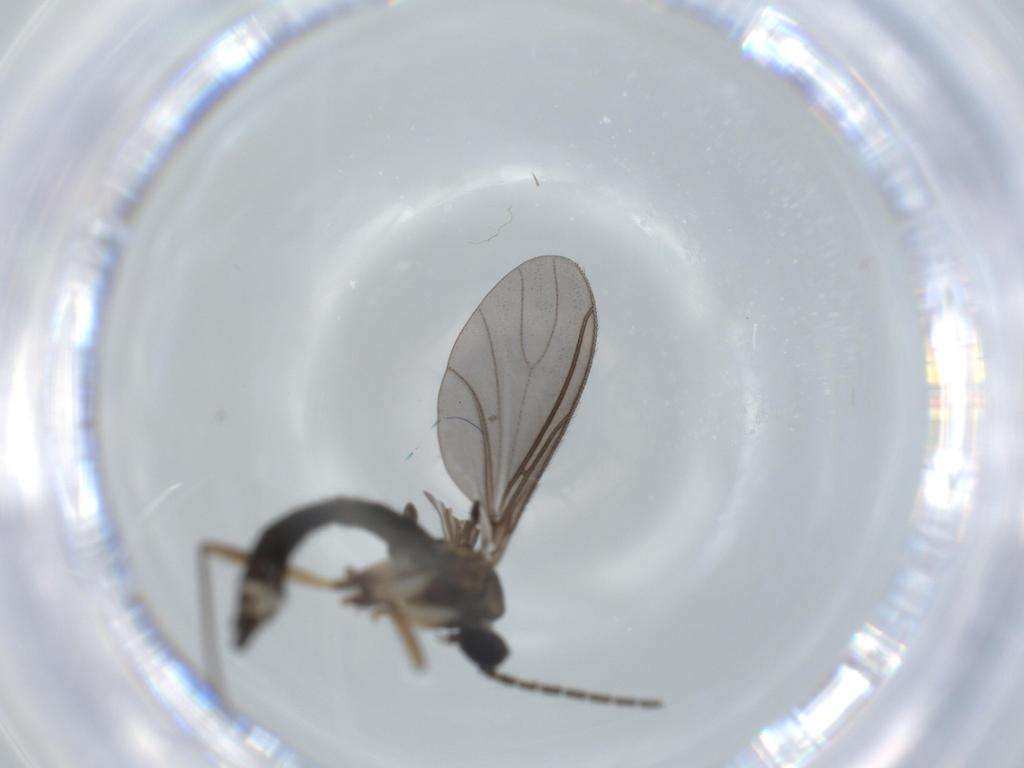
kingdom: Animalia
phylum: Arthropoda
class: Insecta
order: Diptera
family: Sciaridae
